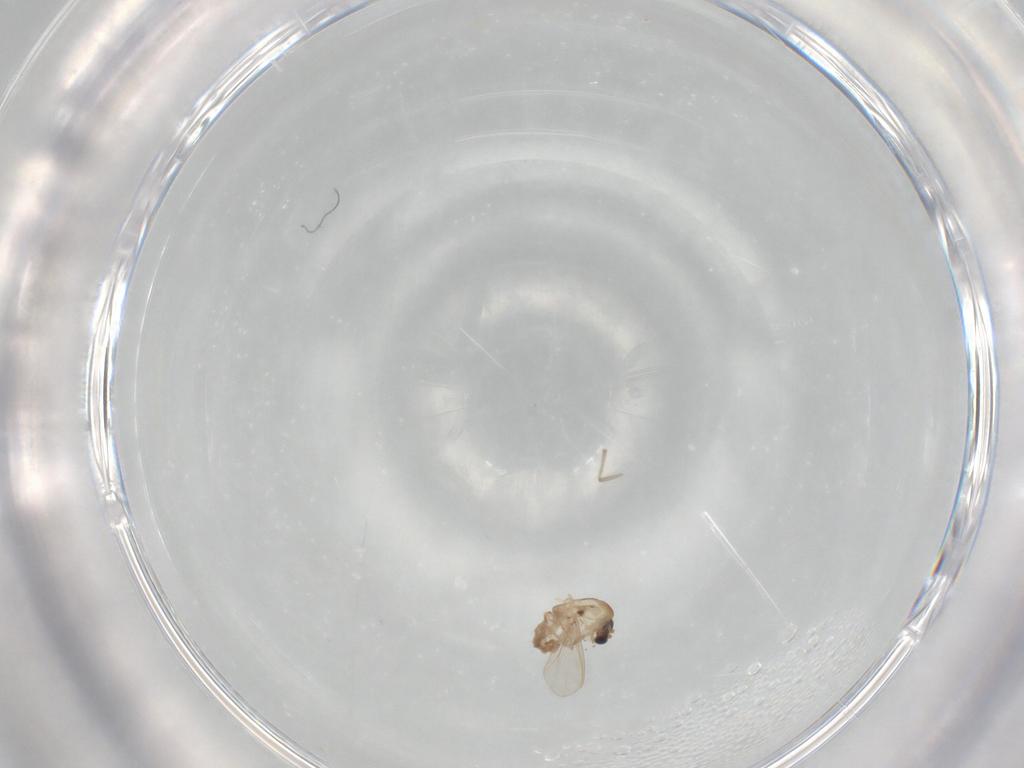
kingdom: Animalia
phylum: Arthropoda
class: Insecta
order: Diptera
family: Chironomidae
